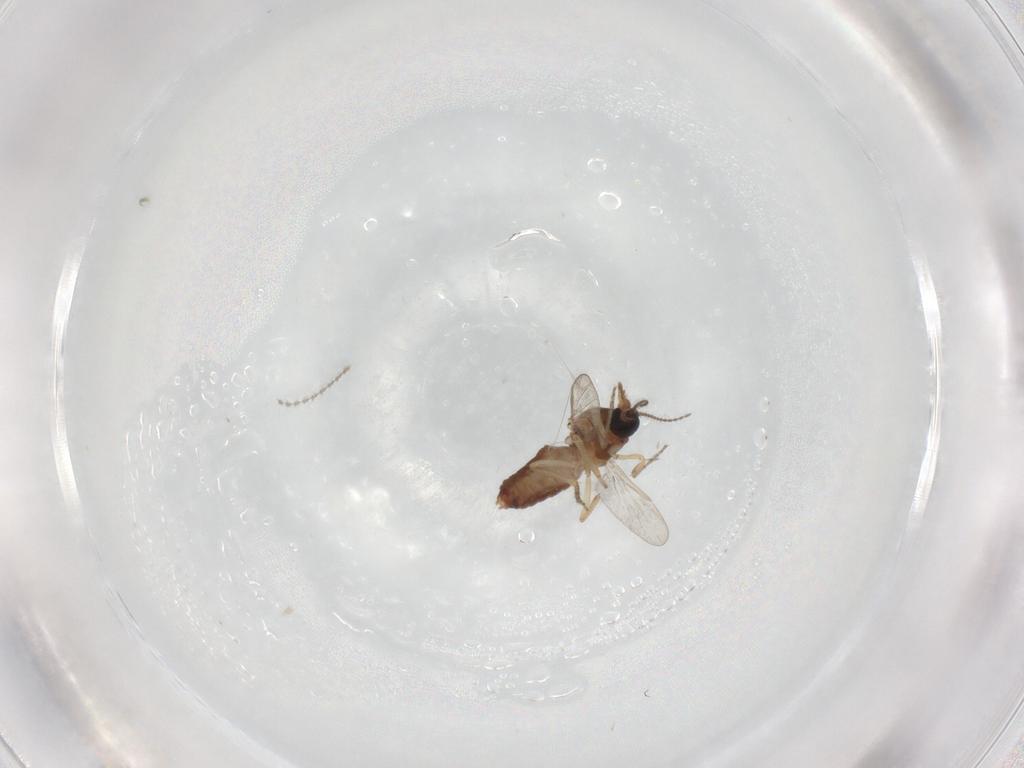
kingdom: Animalia
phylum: Arthropoda
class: Insecta
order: Diptera
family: Ceratopogonidae
